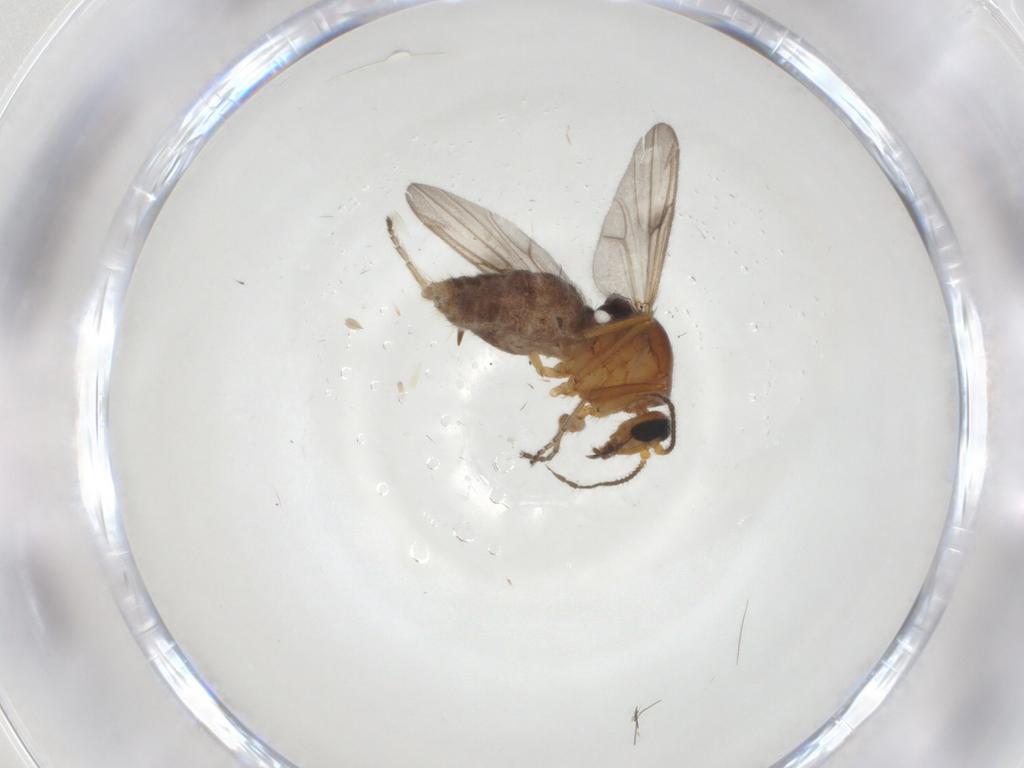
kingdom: Animalia
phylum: Arthropoda
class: Insecta
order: Diptera
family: Ceratopogonidae
